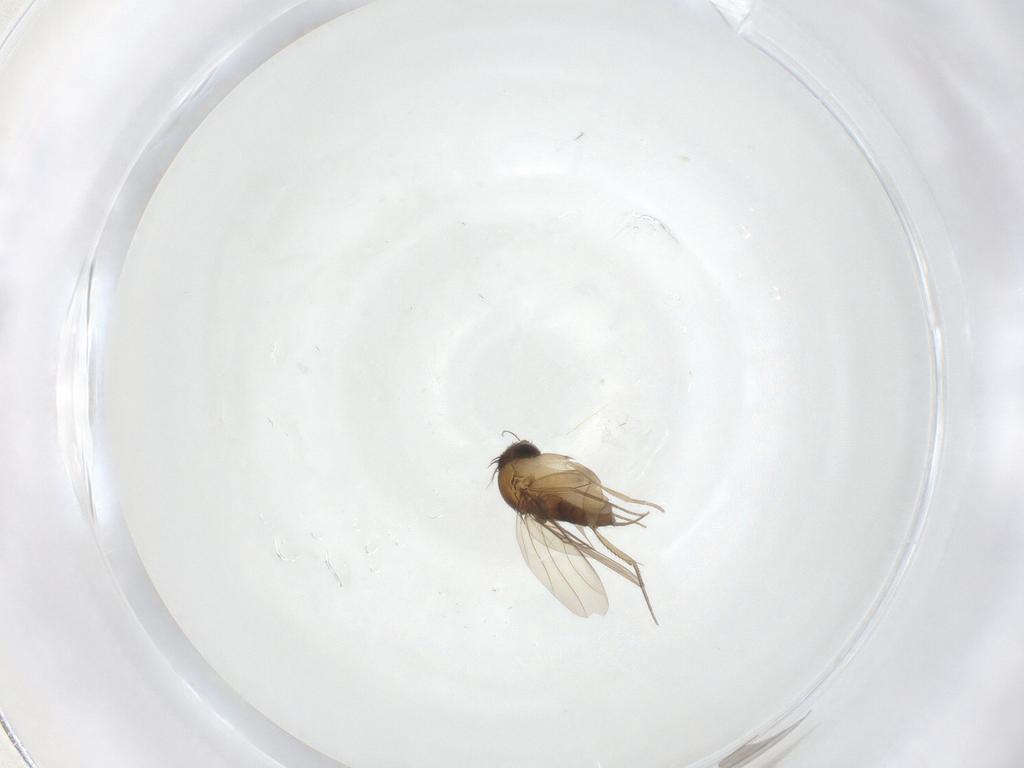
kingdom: Animalia
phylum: Arthropoda
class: Insecta
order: Diptera
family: Phoridae
